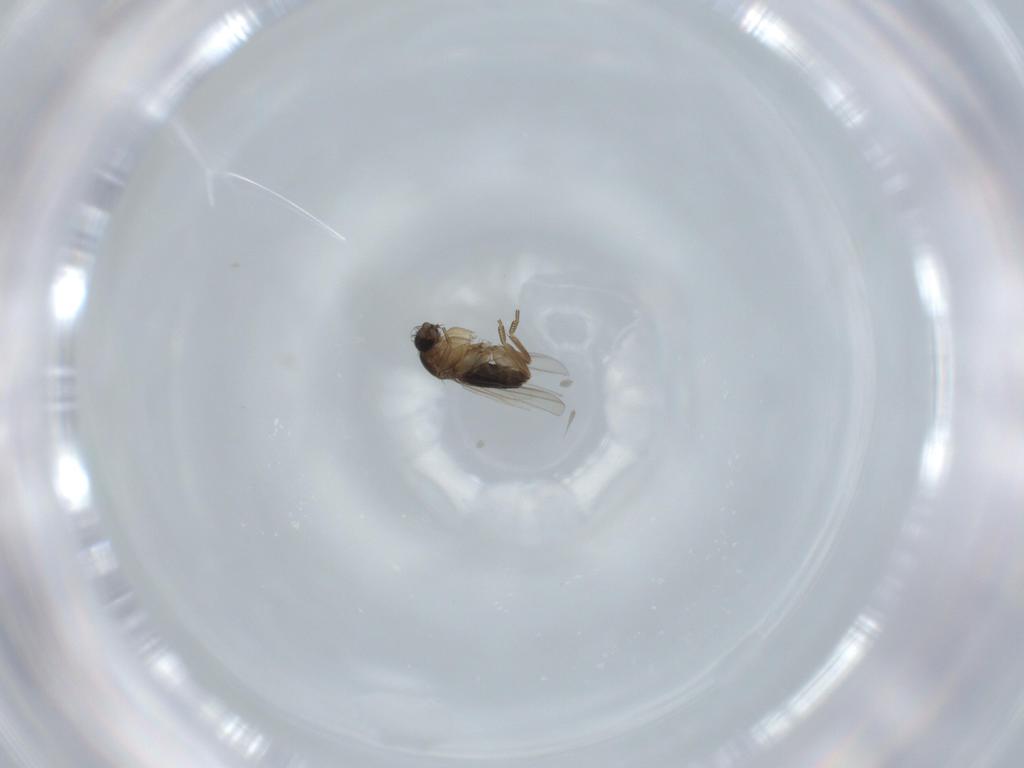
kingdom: Animalia
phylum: Arthropoda
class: Insecta
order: Diptera
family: Phoridae
